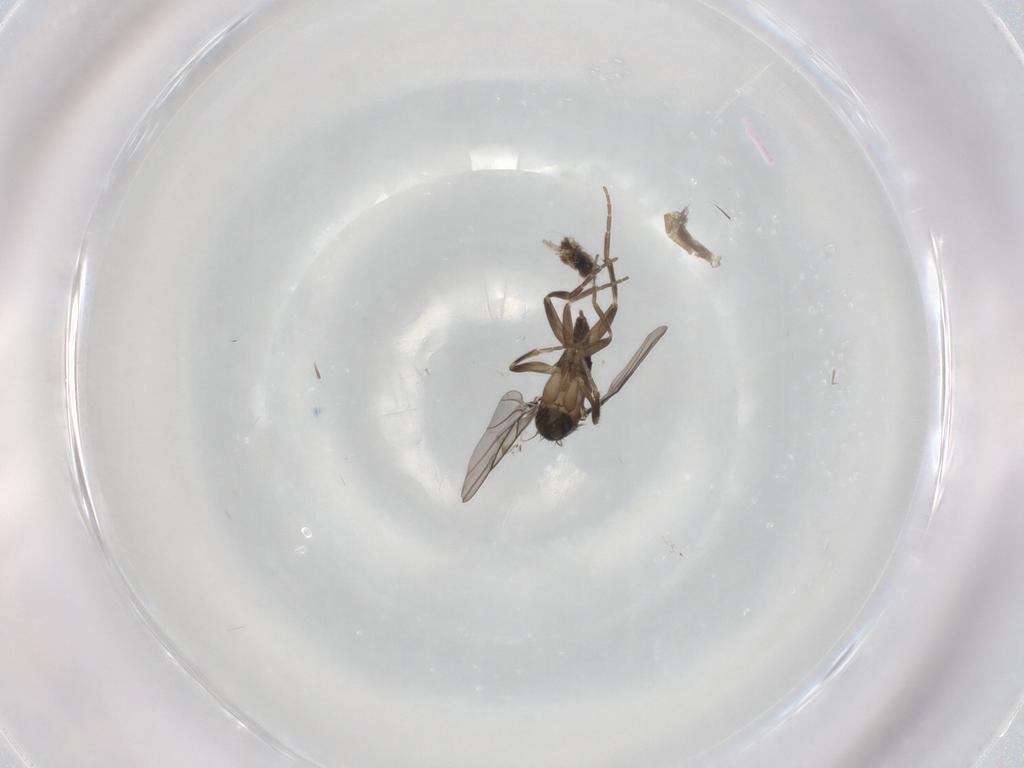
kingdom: Animalia
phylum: Arthropoda
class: Insecta
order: Diptera
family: Phoridae
